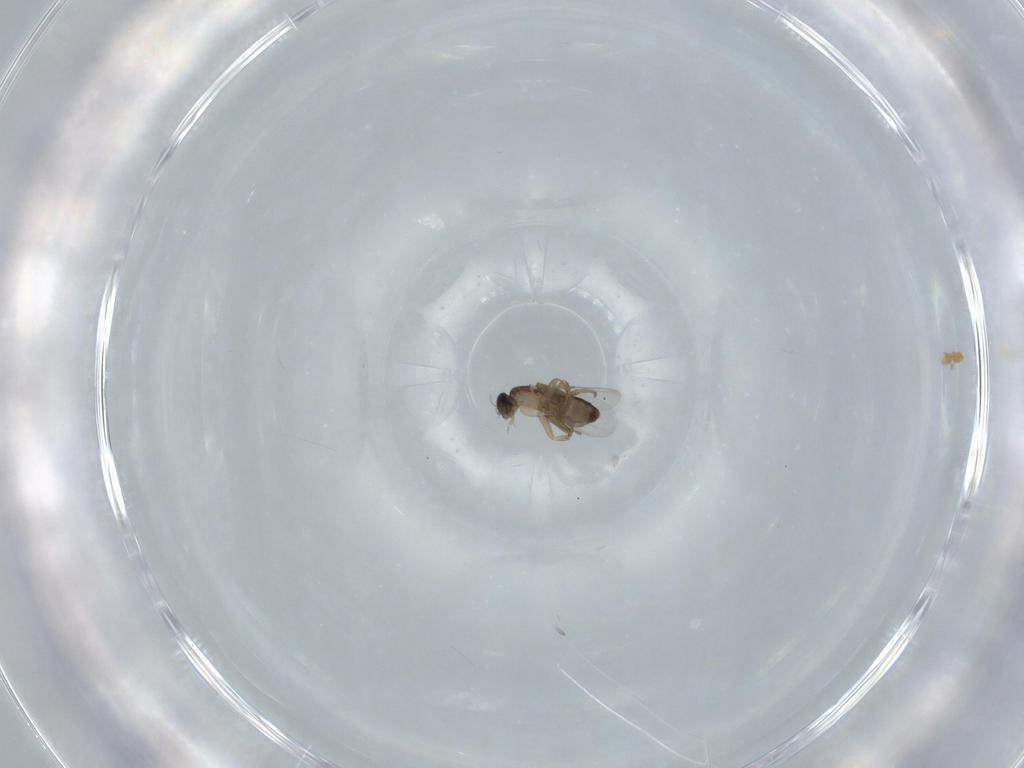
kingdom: Animalia
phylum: Arthropoda
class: Insecta
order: Diptera
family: Phoridae
